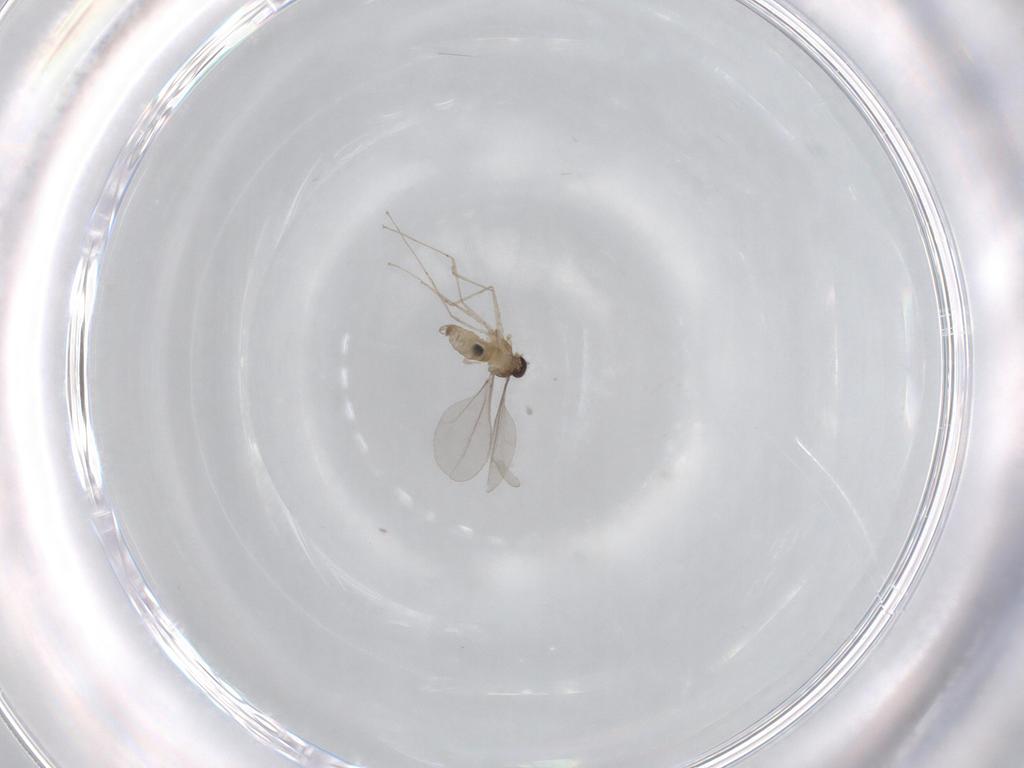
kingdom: Animalia
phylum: Arthropoda
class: Insecta
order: Diptera
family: Cecidomyiidae
